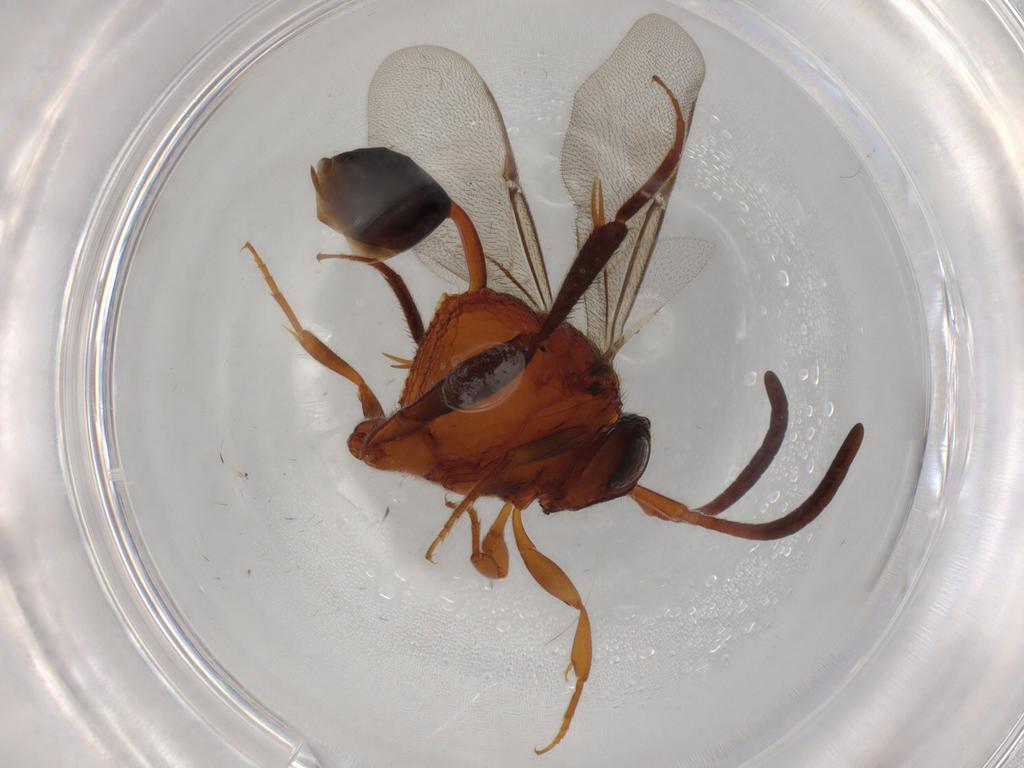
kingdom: Animalia
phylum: Arthropoda
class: Insecta
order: Hymenoptera
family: Evaniidae
